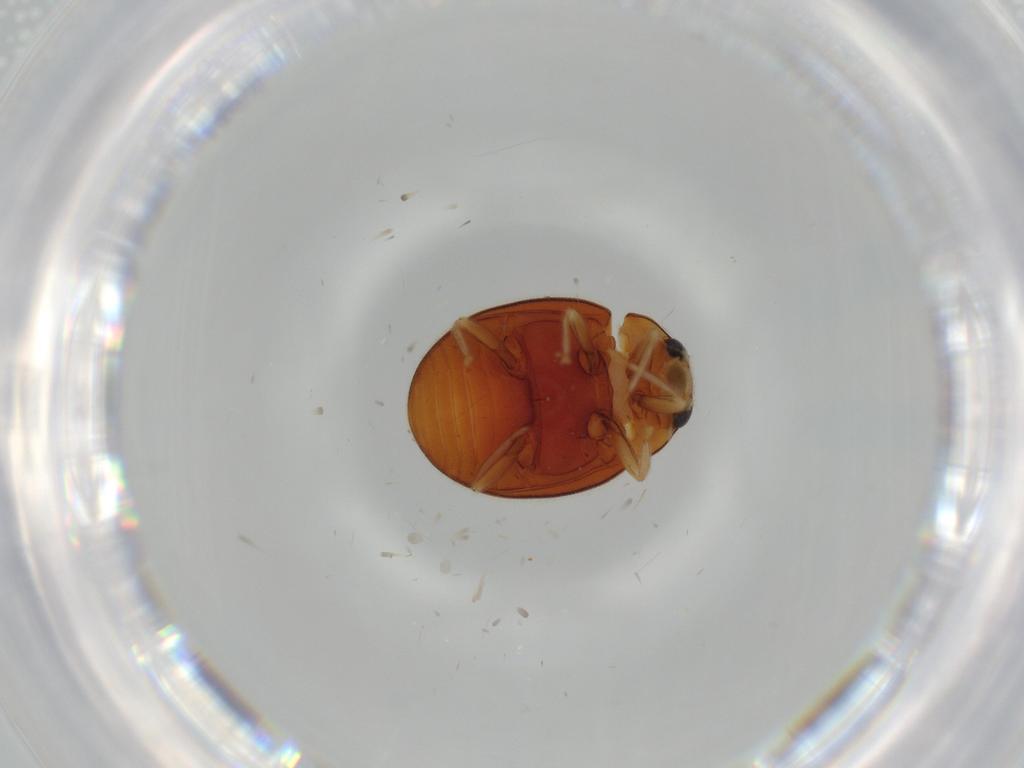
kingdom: Animalia
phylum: Arthropoda
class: Insecta
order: Coleoptera
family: Coccinellidae
